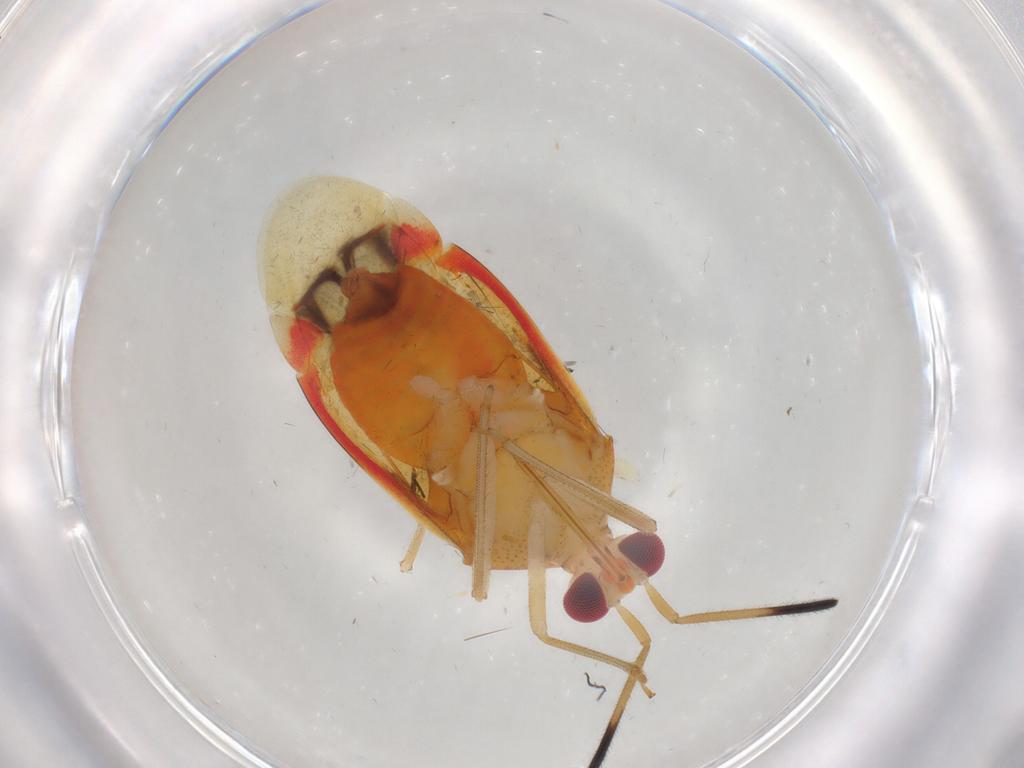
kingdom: Animalia
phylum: Arthropoda
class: Insecta
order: Hemiptera
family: Miridae
